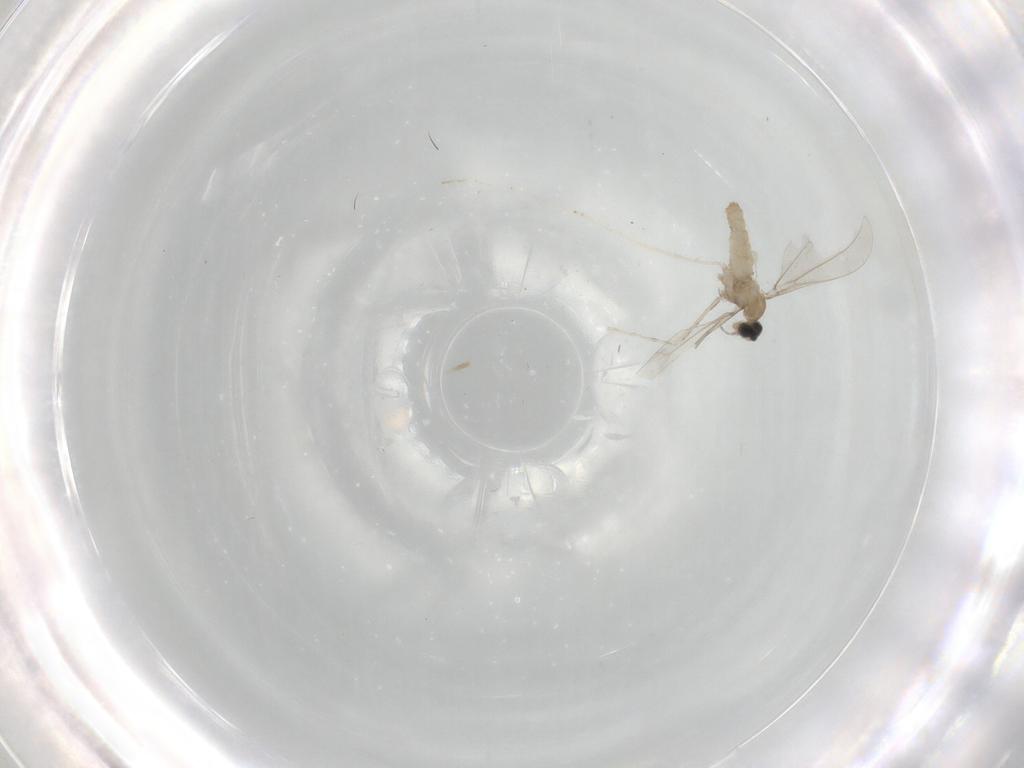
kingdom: Animalia
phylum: Arthropoda
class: Insecta
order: Diptera
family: Cecidomyiidae
